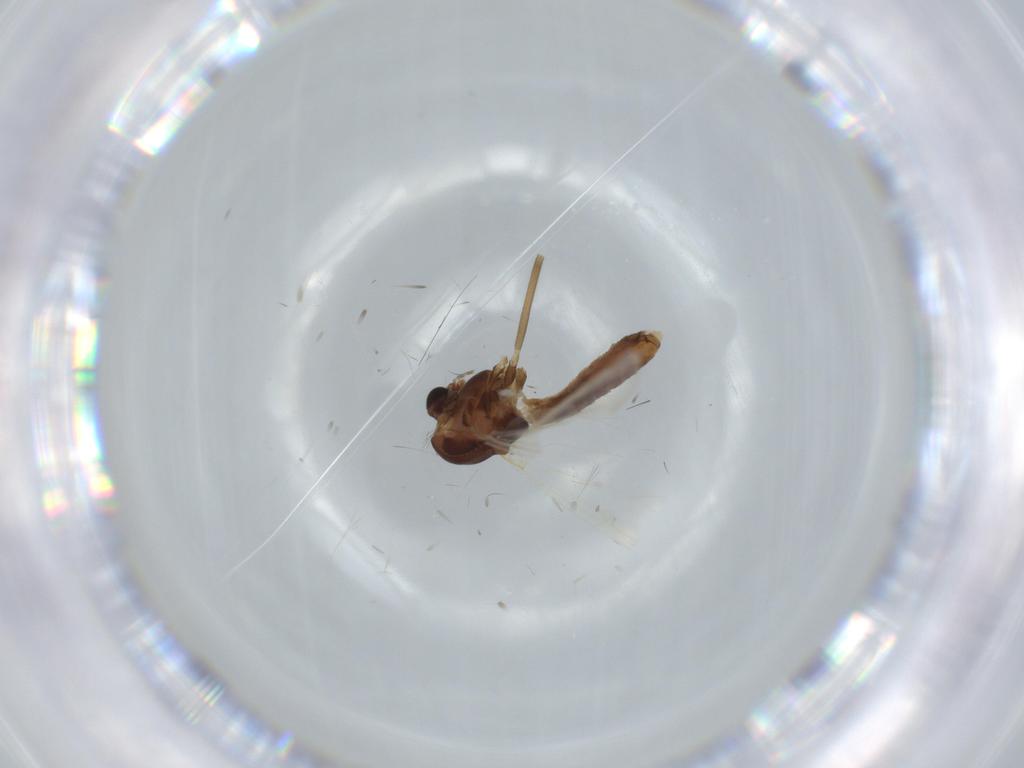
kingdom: Animalia
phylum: Arthropoda
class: Insecta
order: Diptera
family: Chironomidae
